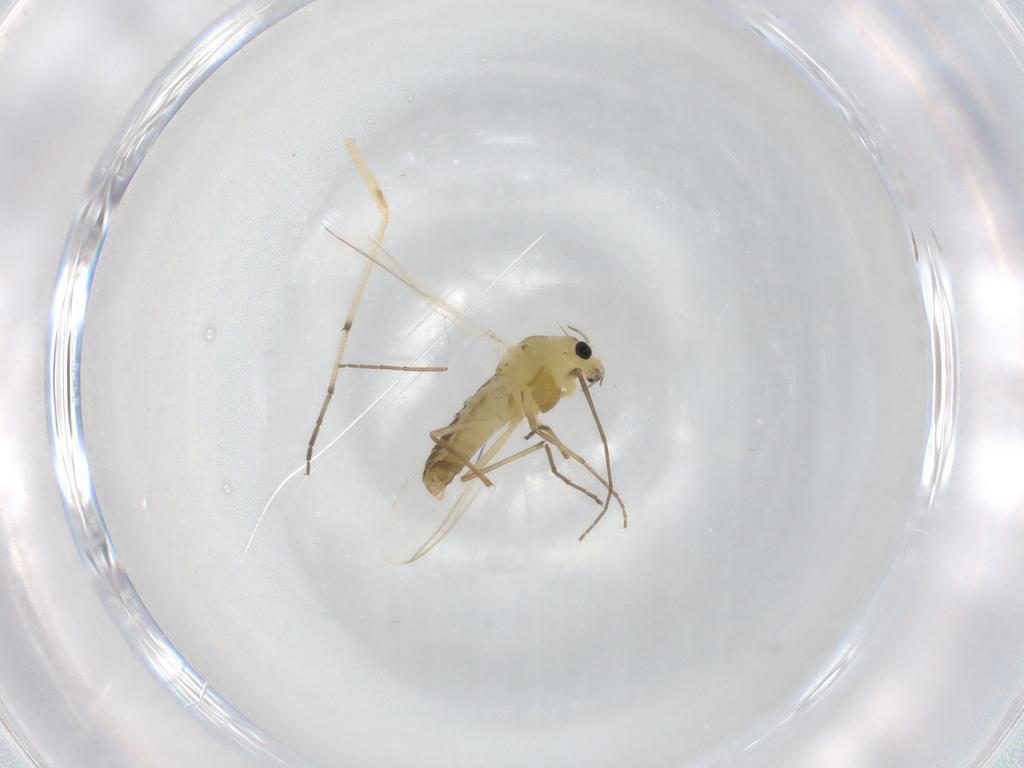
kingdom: Animalia
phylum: Arthropoda
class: Insecta
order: Diptera
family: Chironomidae
